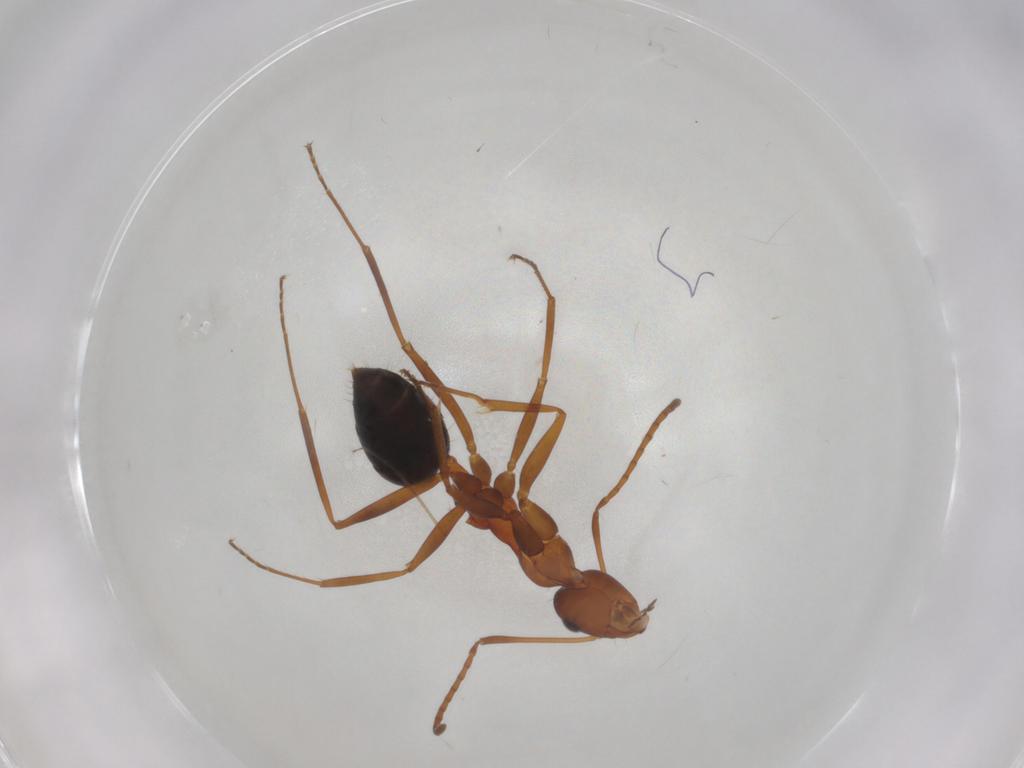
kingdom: Animalia
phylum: Arthropoda
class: Insecta
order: Hymenoptera
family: Formicidae
